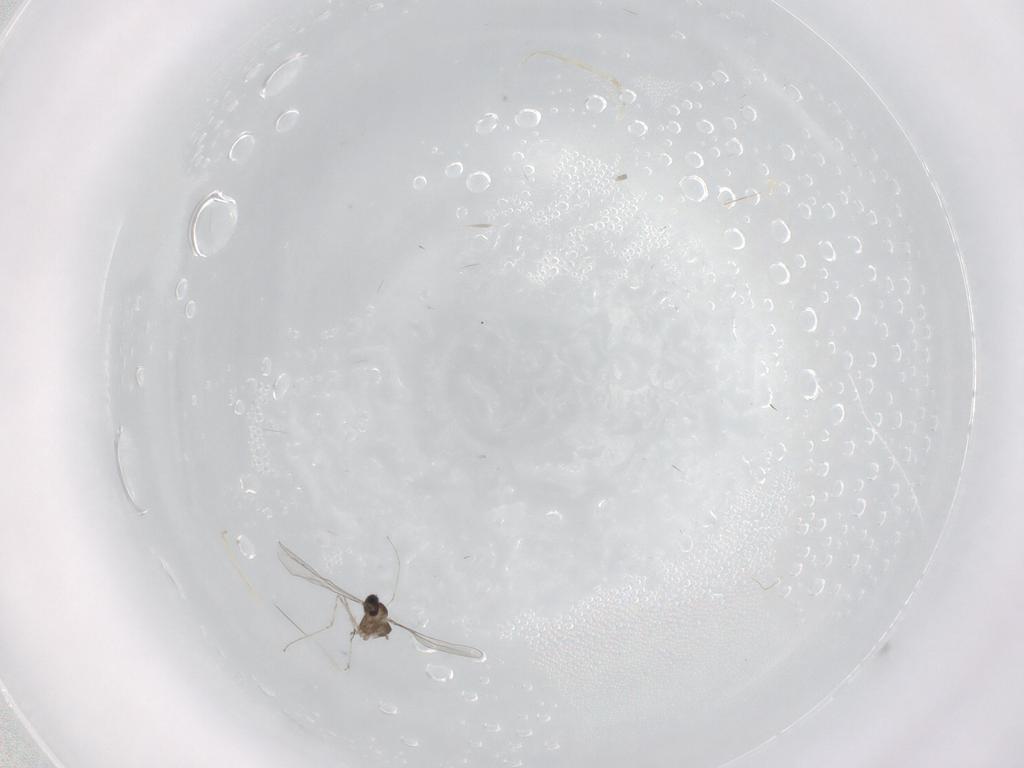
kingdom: Animalia
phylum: Arthropoda
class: Insecta
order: Diptera
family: Cecidomyiidae
